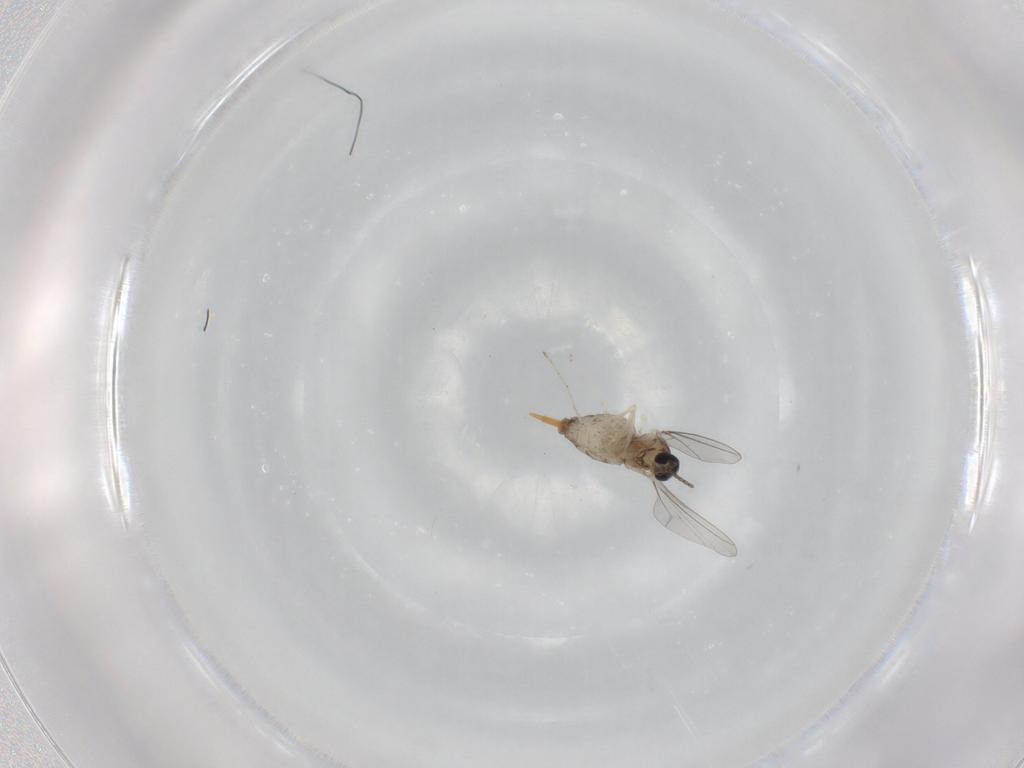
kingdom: Animalia
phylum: Arthropoda
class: Insecta
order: Diptera
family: Cecidomyiidae
